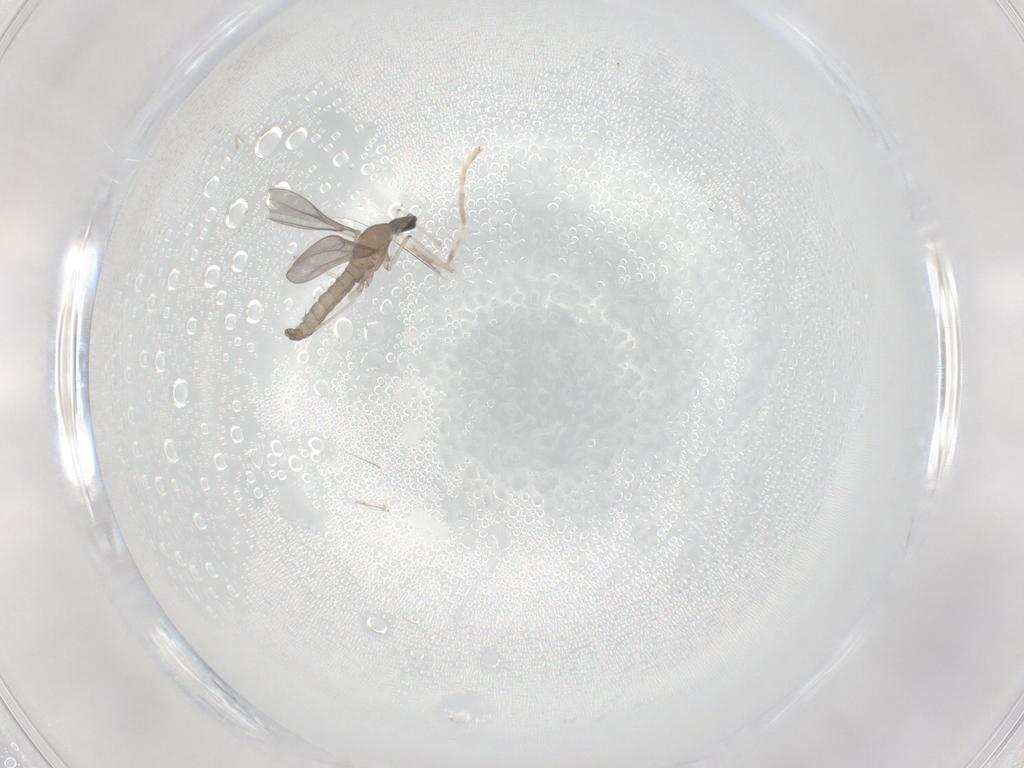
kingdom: Animalia
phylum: Arthropoda
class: Insecta
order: Diptera
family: Cecidomyiidae
